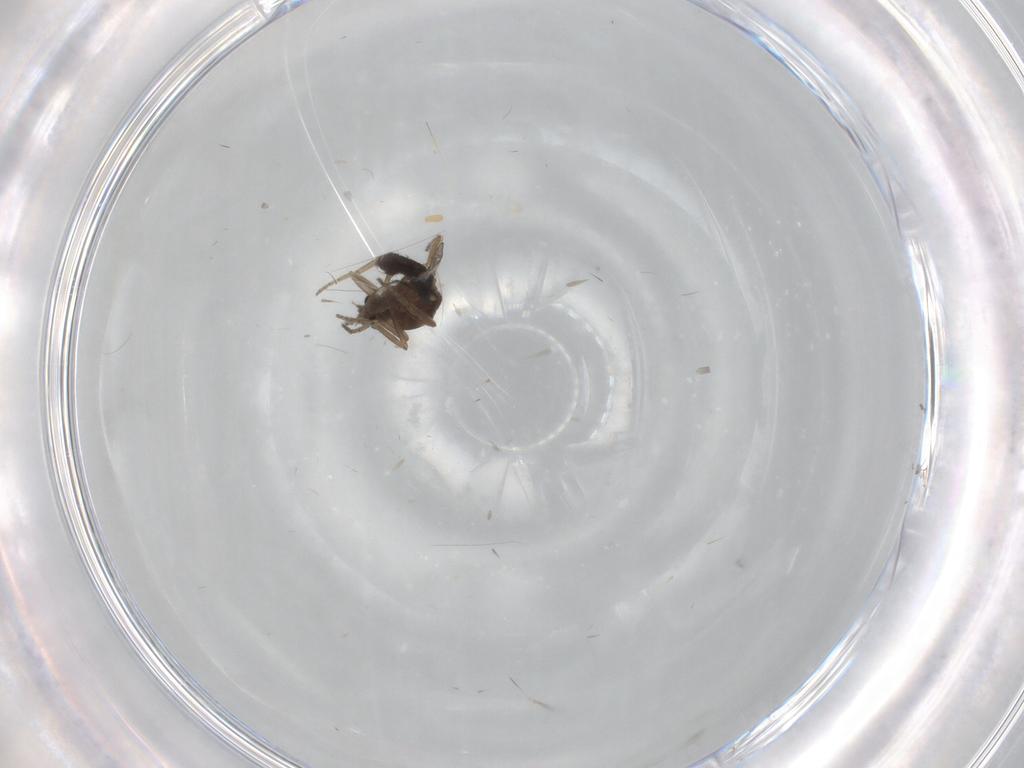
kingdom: Animalia
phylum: Arthropoda
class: Insecta
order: Diptera
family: Ceratopogonidae
